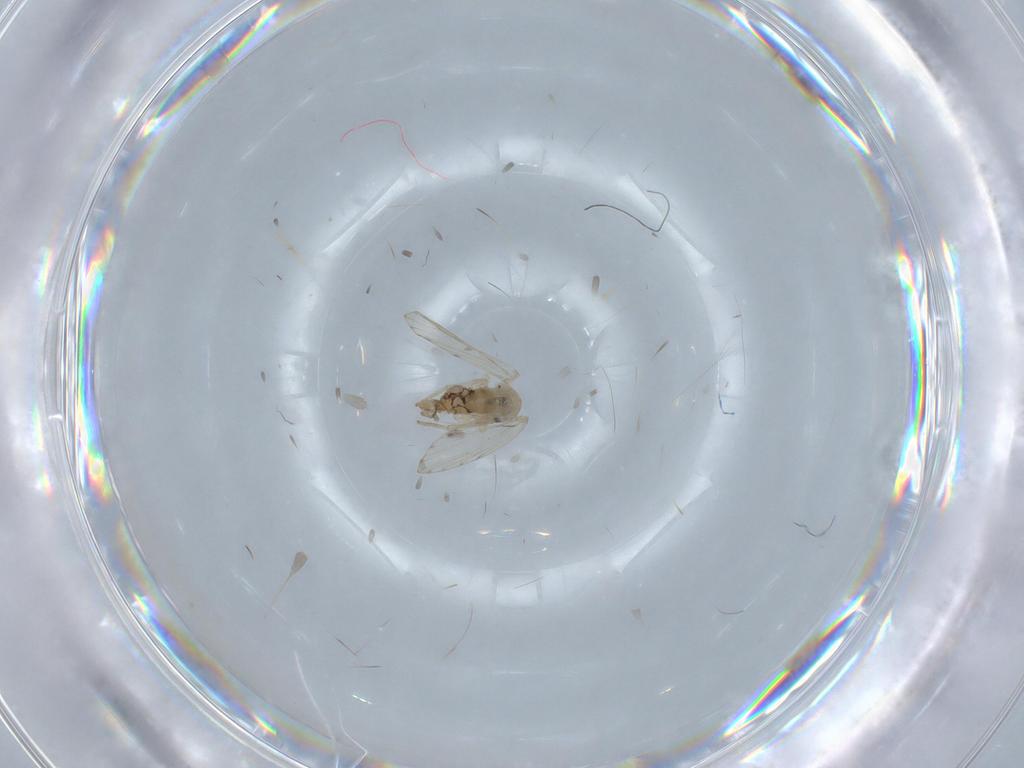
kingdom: Animalia
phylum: Arthropoda
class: Insecta
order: Diptera
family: Psychodidae
